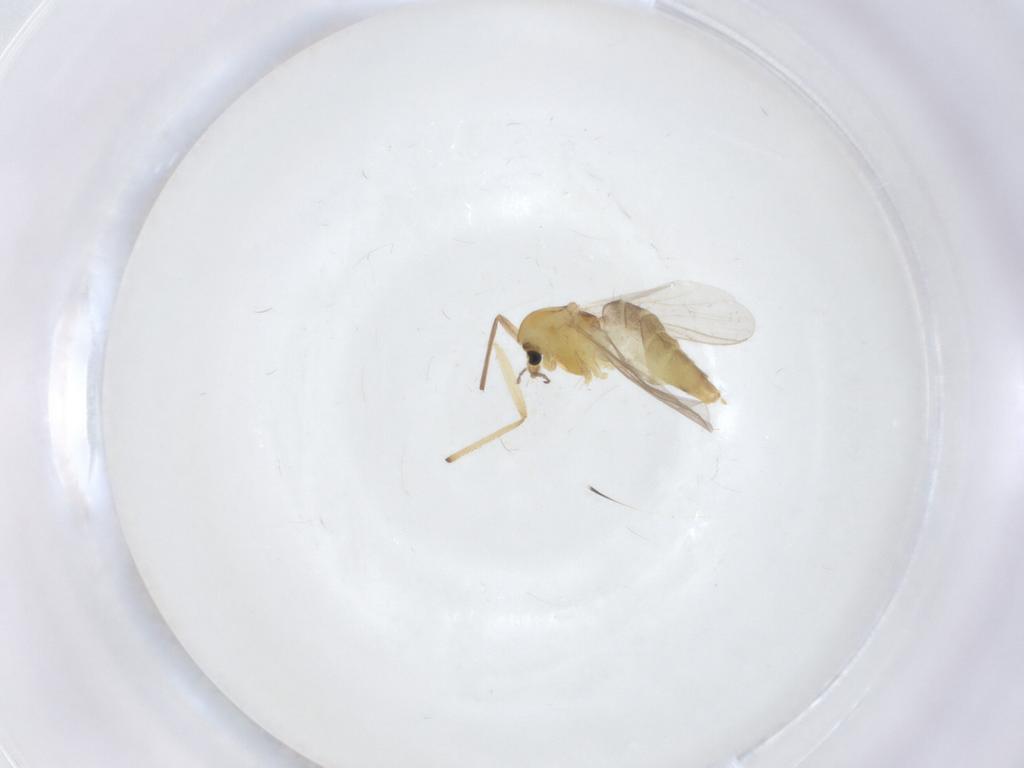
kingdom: Animalia
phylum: Arthropoda
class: Insecta
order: Diptera
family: Chironomidae
